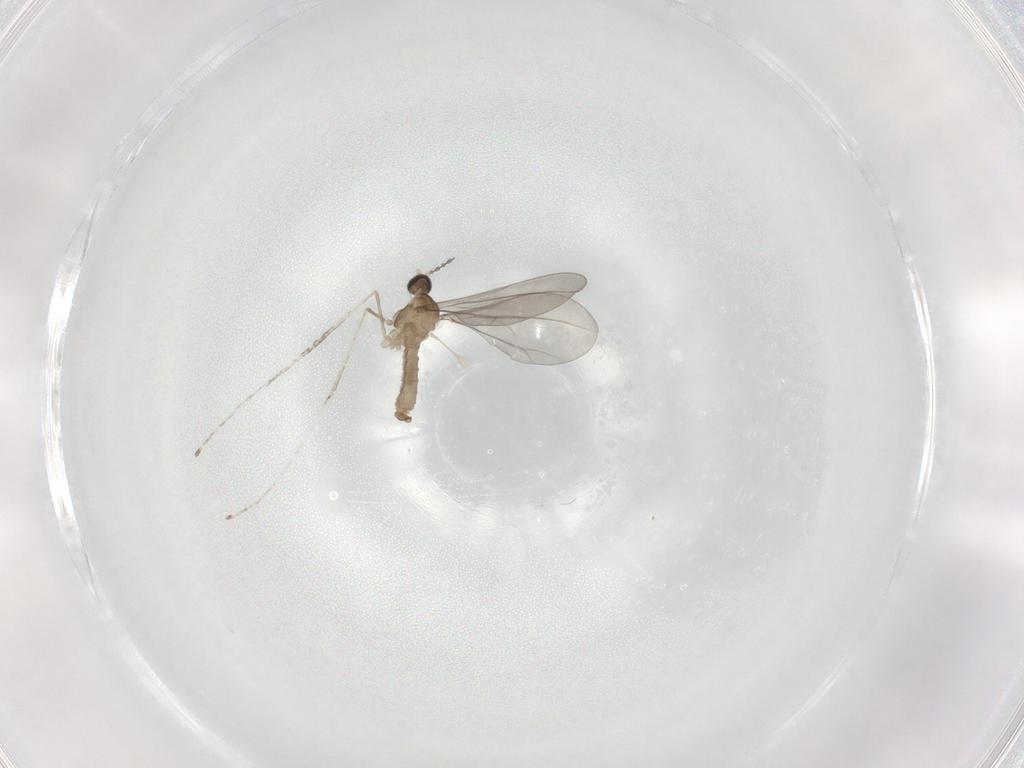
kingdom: Animalia
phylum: Arthropoda
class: Insecta
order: Diptera
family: Cecidomyiidae
